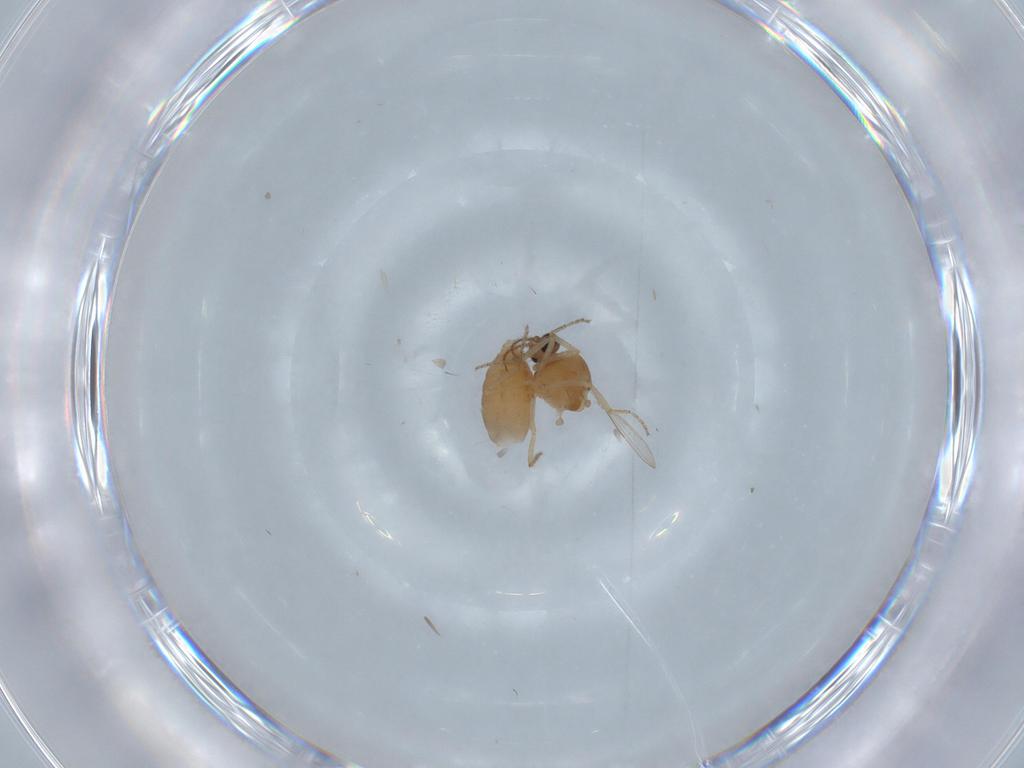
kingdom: Animalia
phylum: Arthropoda
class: Insecta
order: Diptera
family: Ceratopogonidae
